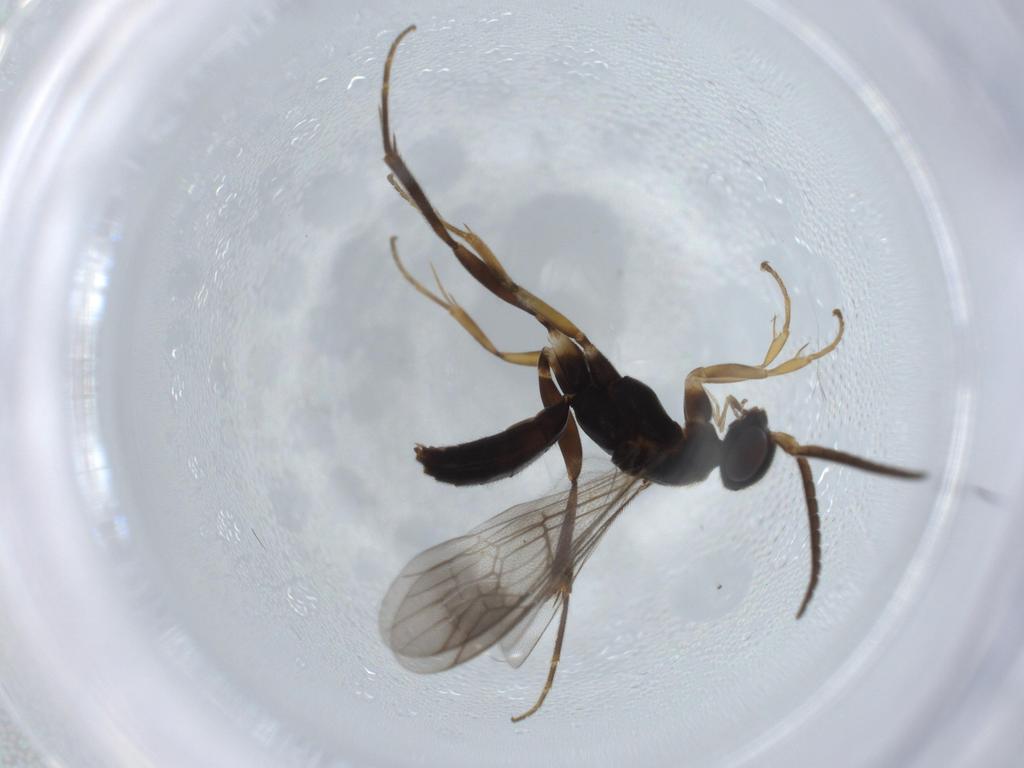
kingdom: Animalia
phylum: Arthropoda
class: Insecta
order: Hymenoptera
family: Pompilidae
